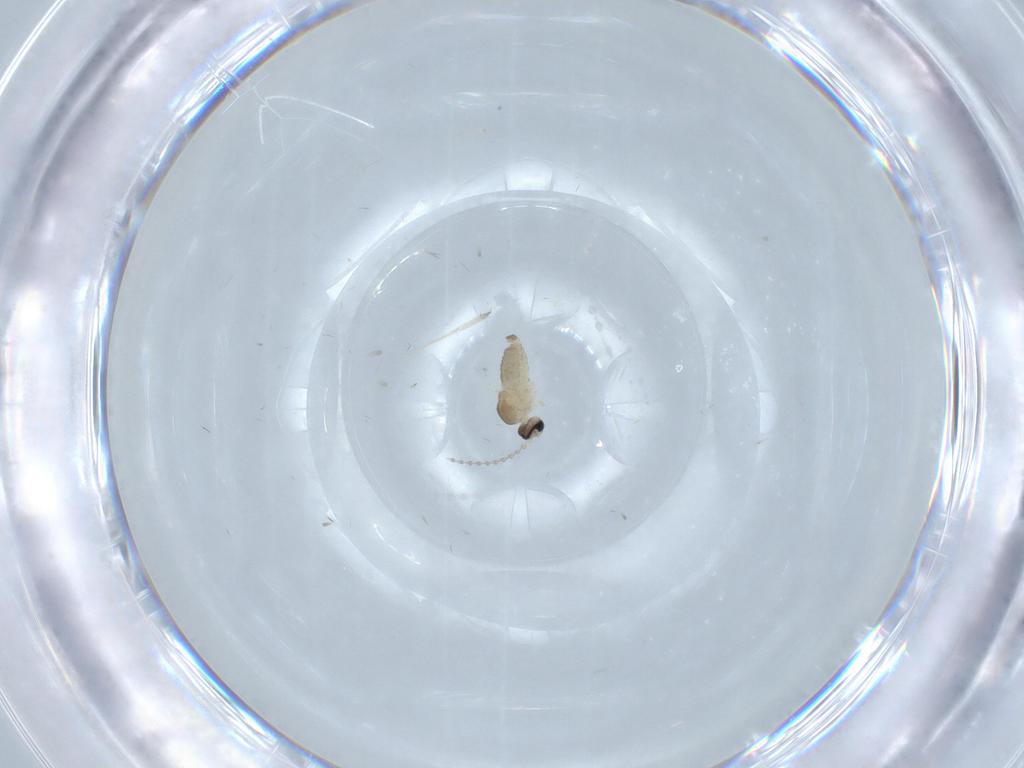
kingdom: Animalia
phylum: Arthropoda
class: Insecta
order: Diptera
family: Cecidomyiidae
